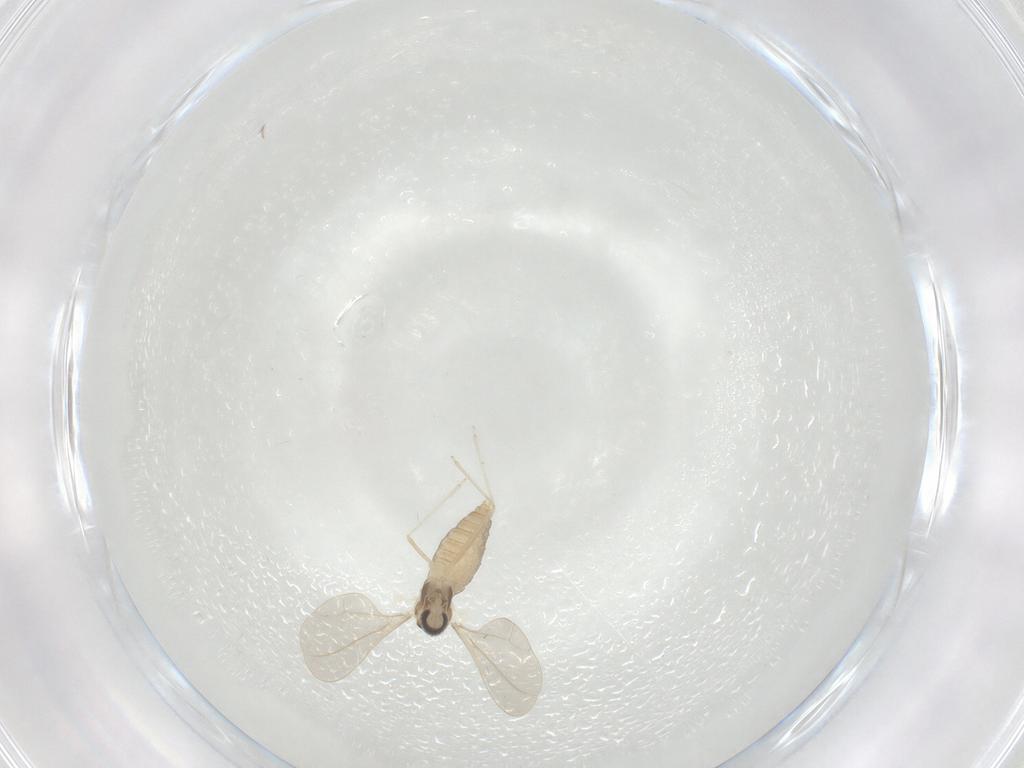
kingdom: Animalia
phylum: Arthropoda
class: Insecta
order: Diptera
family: Cecidomyiidae
